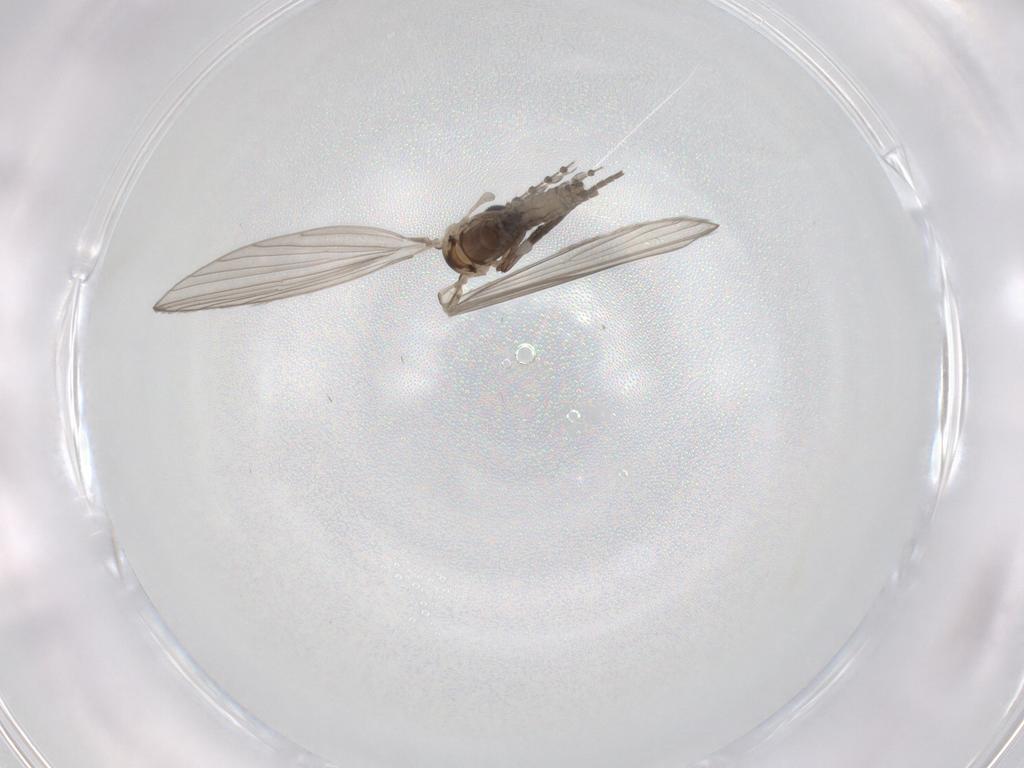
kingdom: Animalia
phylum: Arthropoda
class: Insecta
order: Diptera
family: Psychodidae
